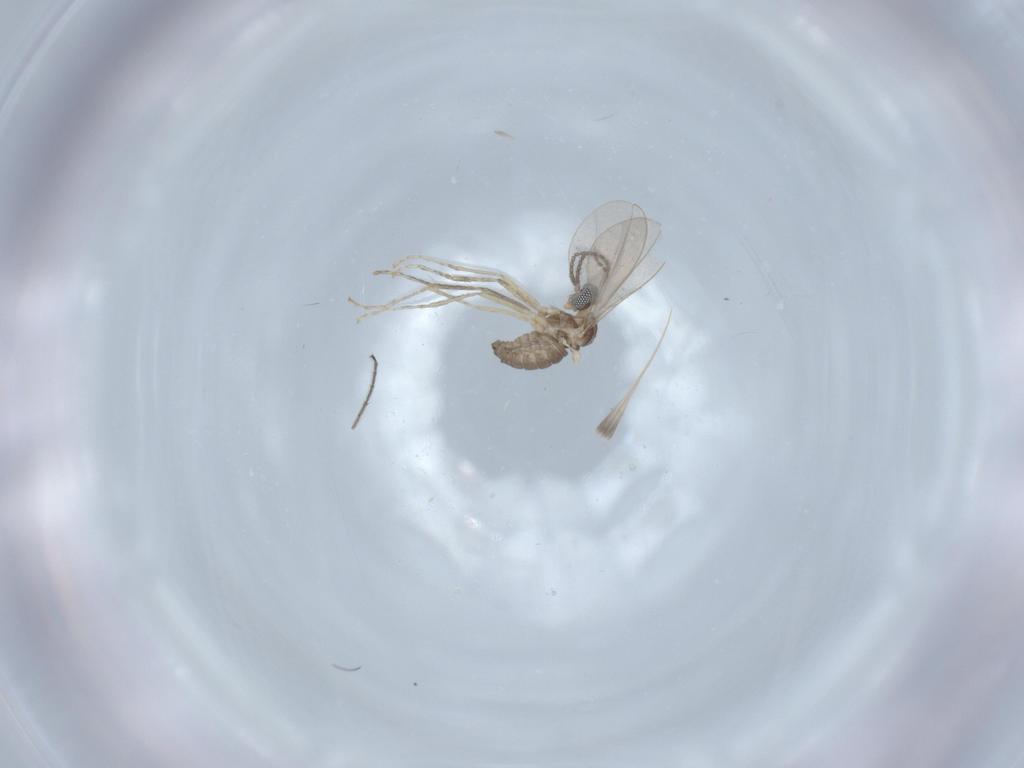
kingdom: Animalia
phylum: Arthropoda
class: Insecta
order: Diptera
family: Cecidomyiidae
